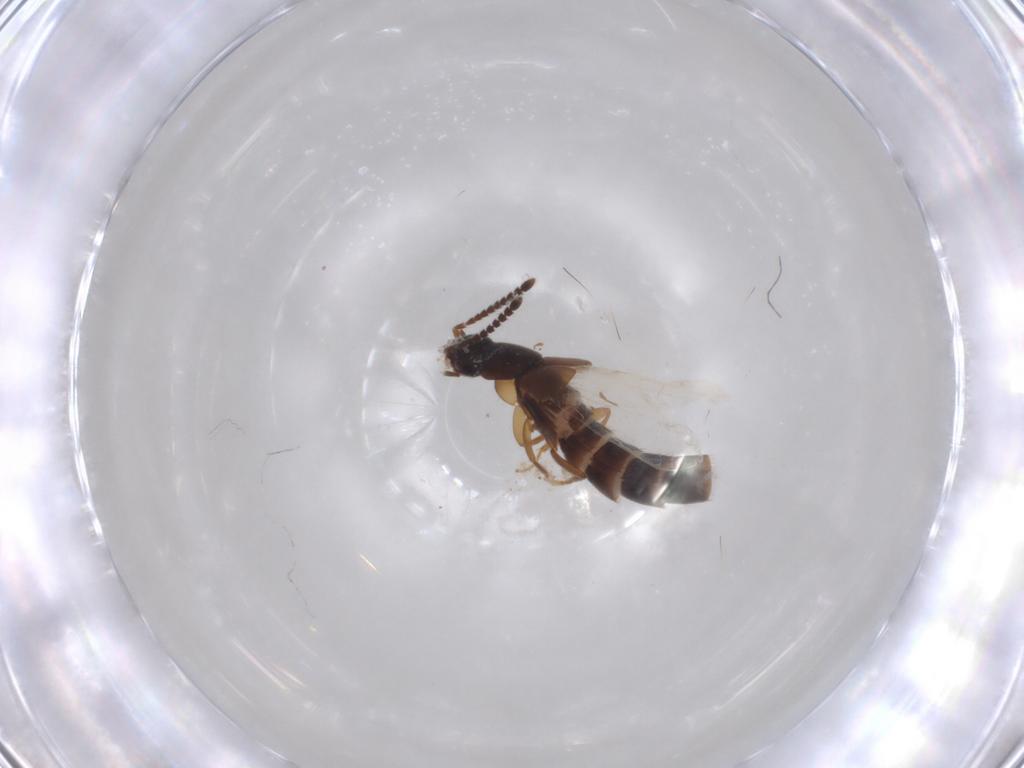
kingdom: Animalia
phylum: Arthropoda
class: Insecta
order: Coleoptera
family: Staphylinidae
